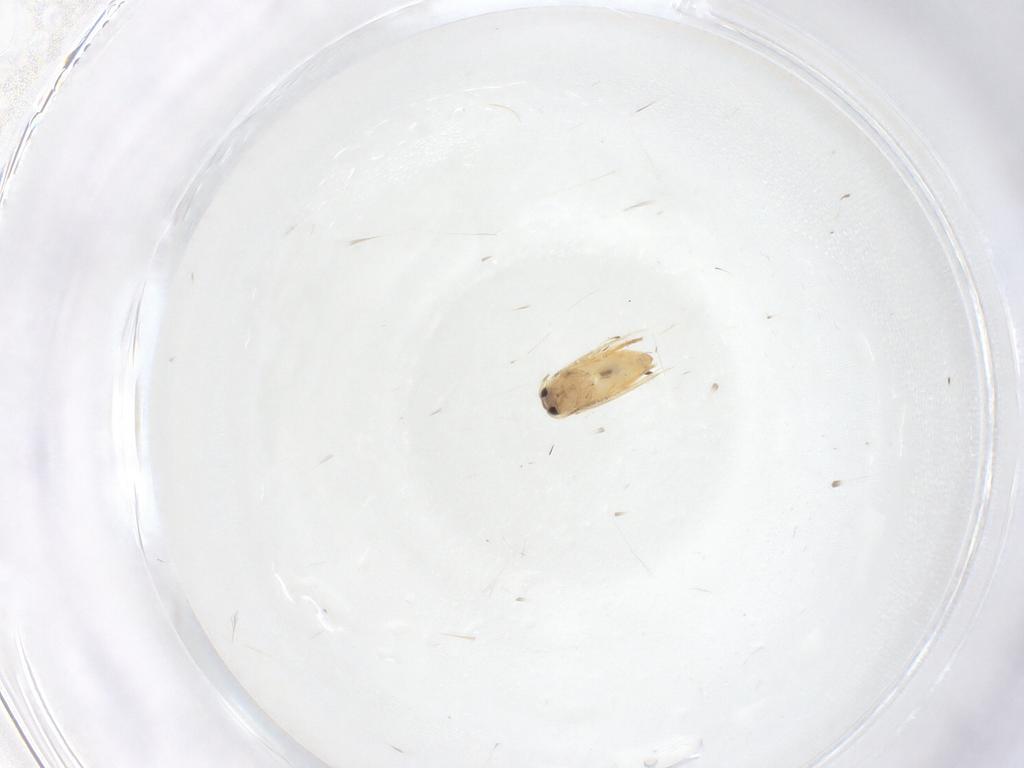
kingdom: Animalia
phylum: Arthropoda
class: Insecta
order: Lepidoptera
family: Crambidae
